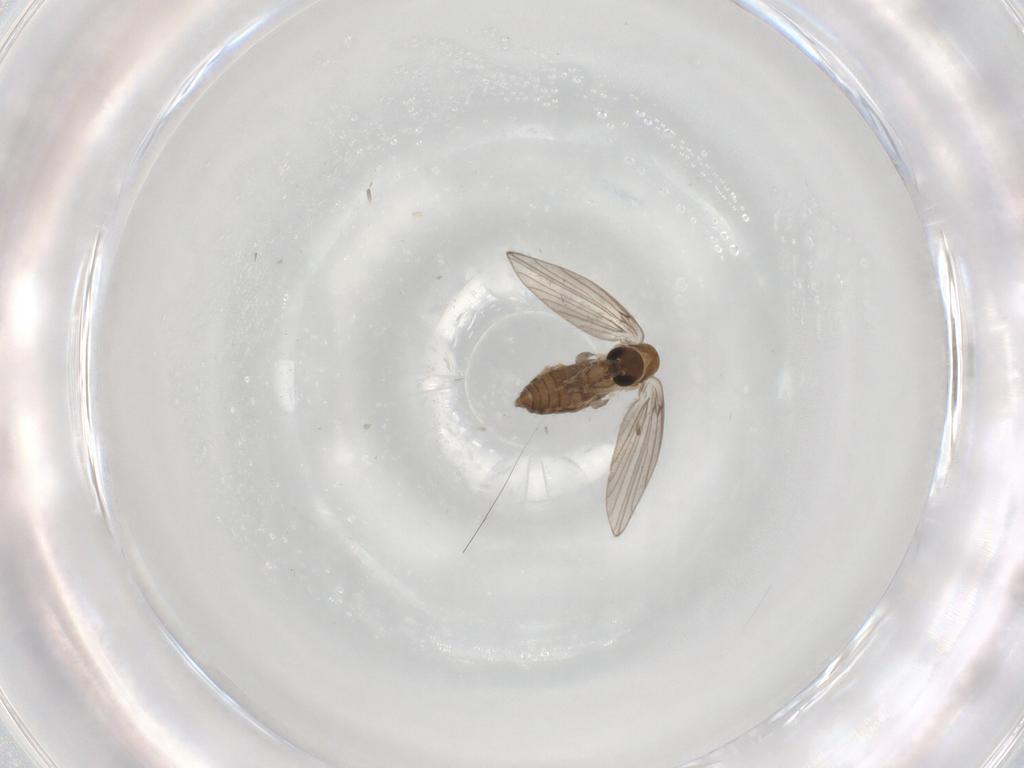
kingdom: Animalia
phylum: Arthropoda
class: Insecta
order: Diptera
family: Psychodidae
